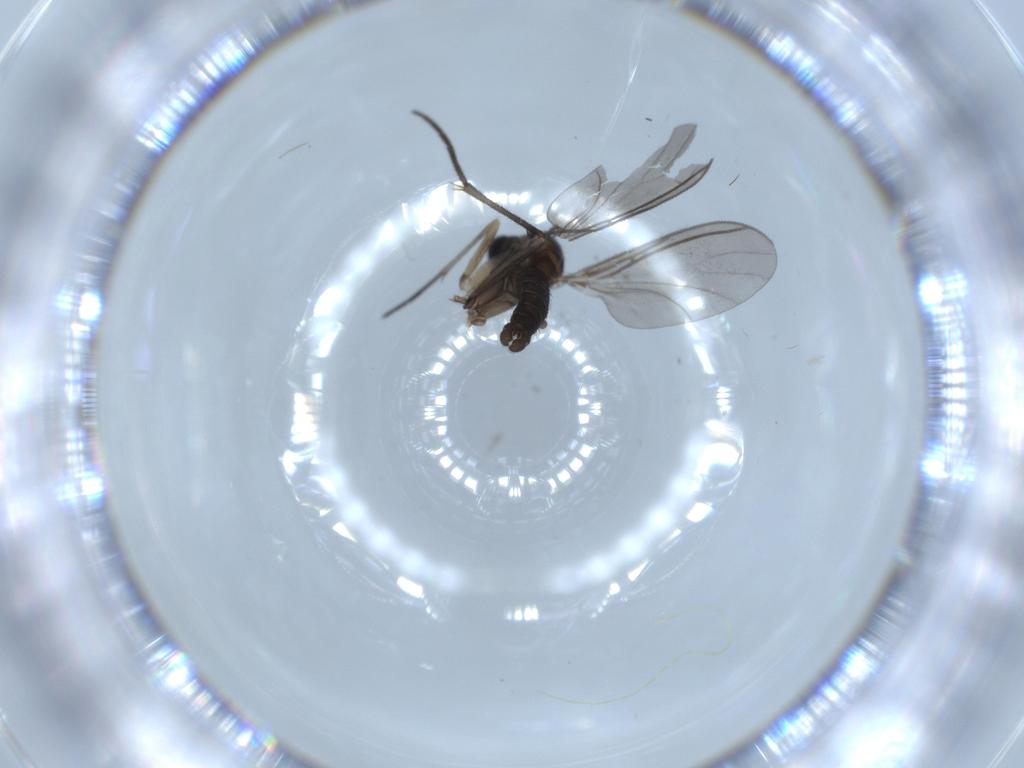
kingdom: Animalia
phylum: Arthropoda
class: Insecta
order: Diptera
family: Sciaridae
